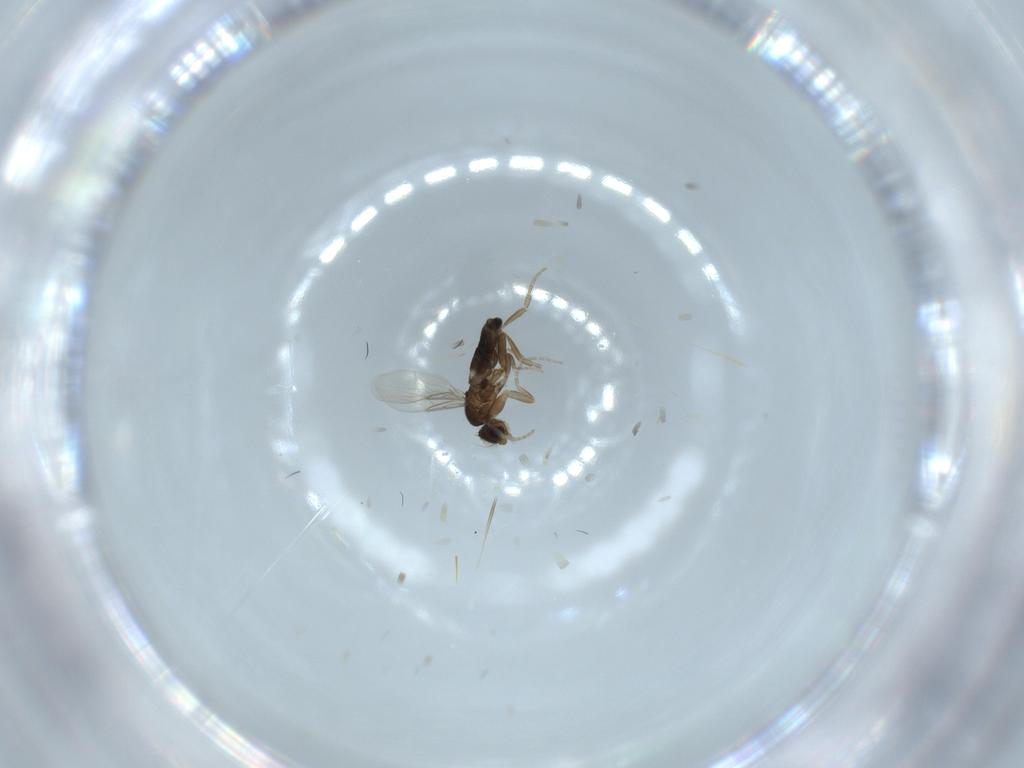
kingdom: Animalia
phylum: Arthropoda
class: Insecta
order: Diptera
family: Agromyzidae
